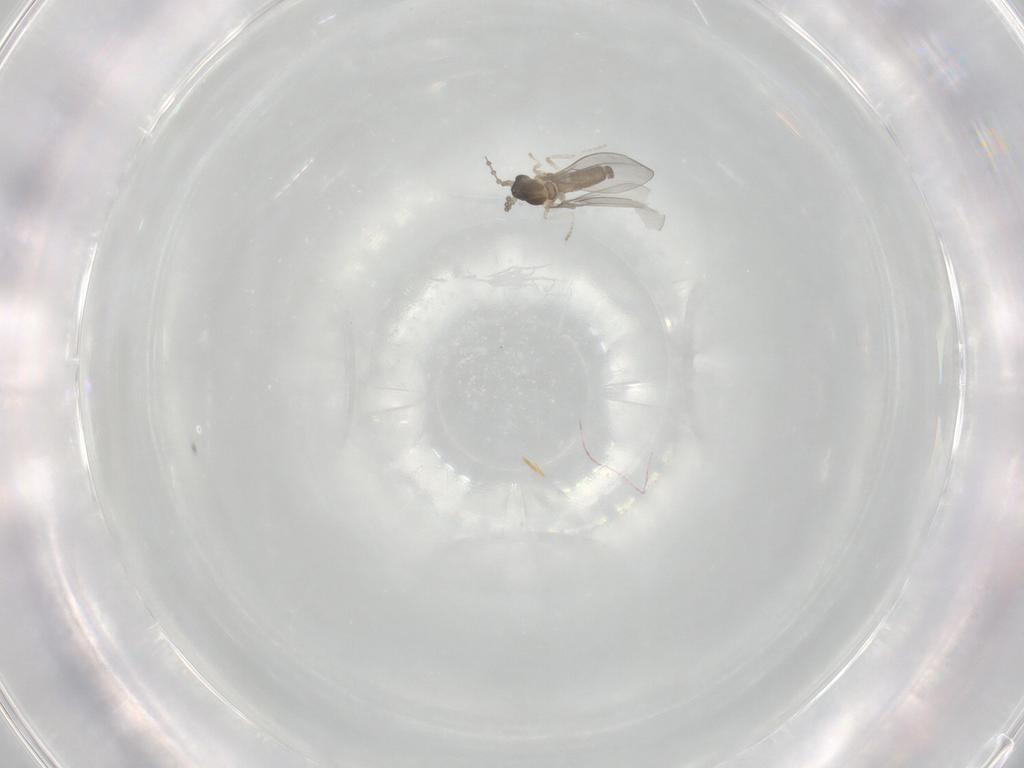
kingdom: Animalia
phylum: Arthropoda
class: Insecta
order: Diptera
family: Cecidomyiidae
